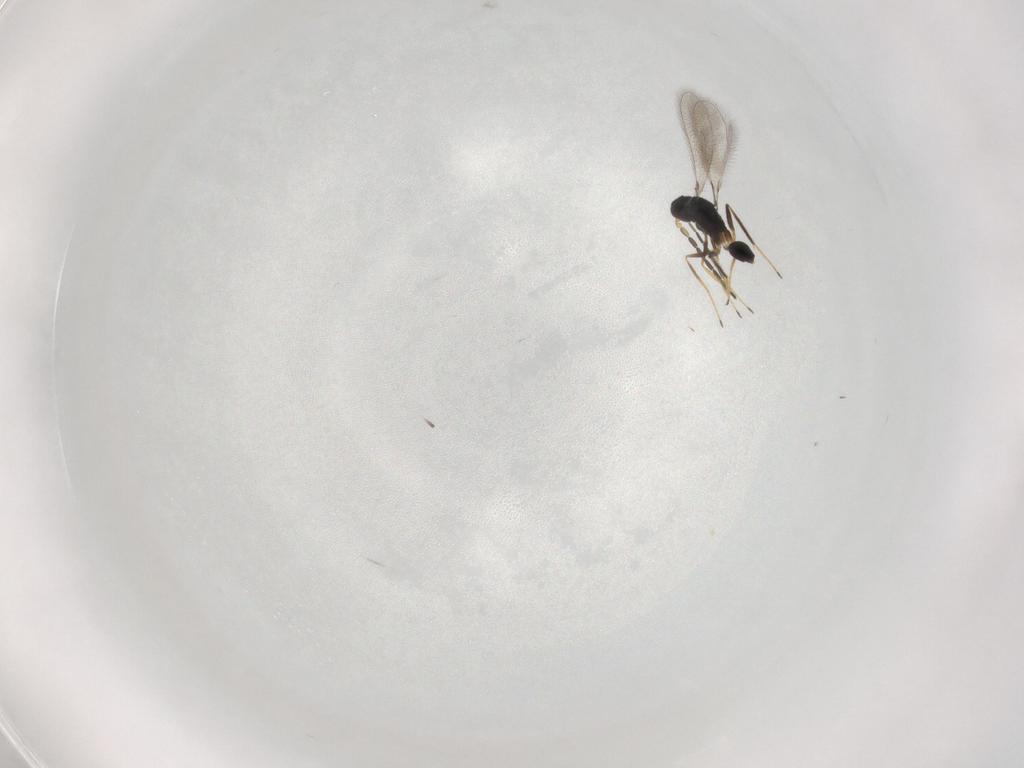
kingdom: Animalia
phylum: Arthropoda
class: Insecta
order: Hymenoptera
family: Mymaridae
